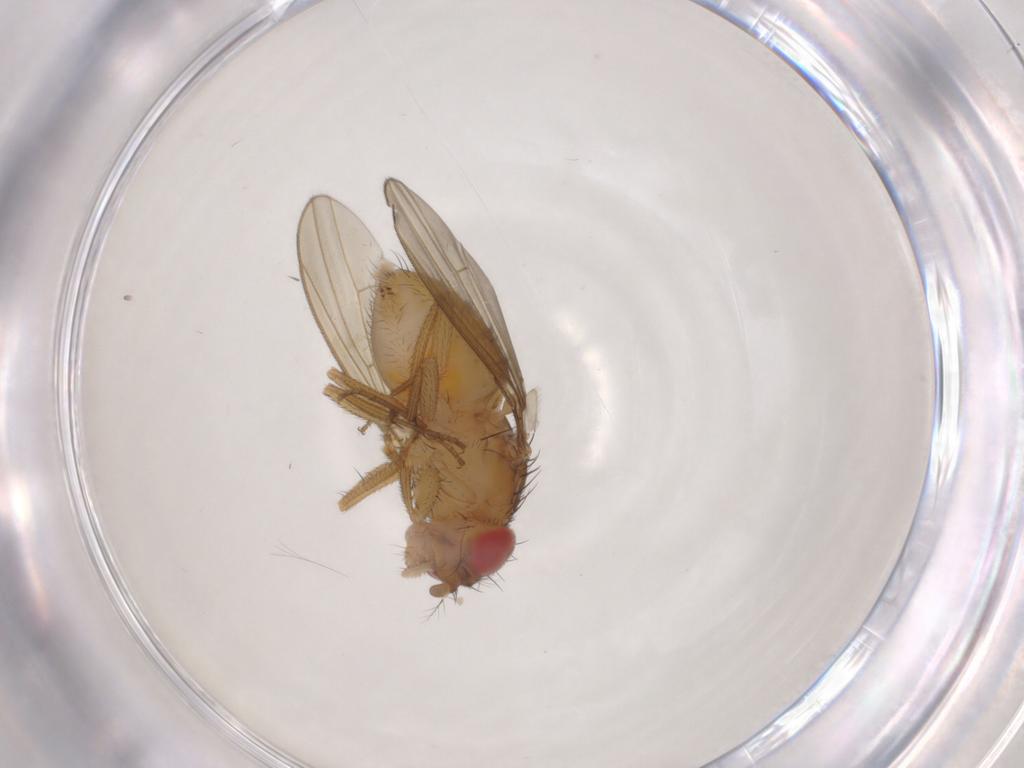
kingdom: Animalia
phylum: Arthropoda
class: Insecta
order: Diptera
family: Drosophilidae
